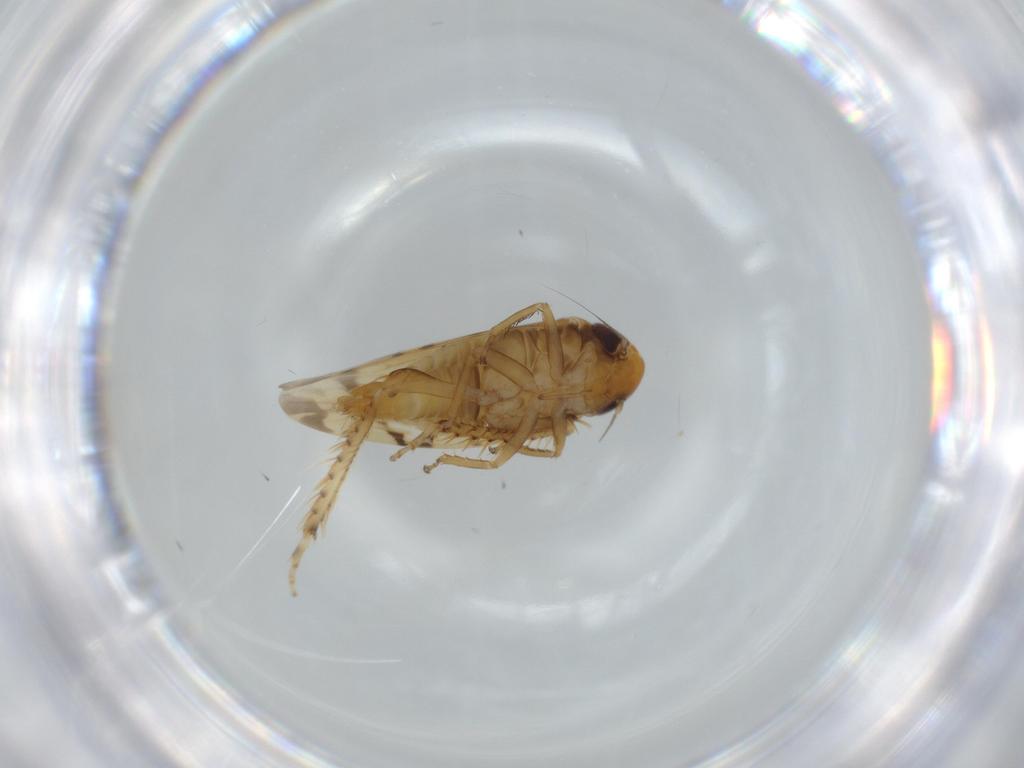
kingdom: Animalia
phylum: Arthropoda
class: Insecta
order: Hemiptera
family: Cicadellidae
